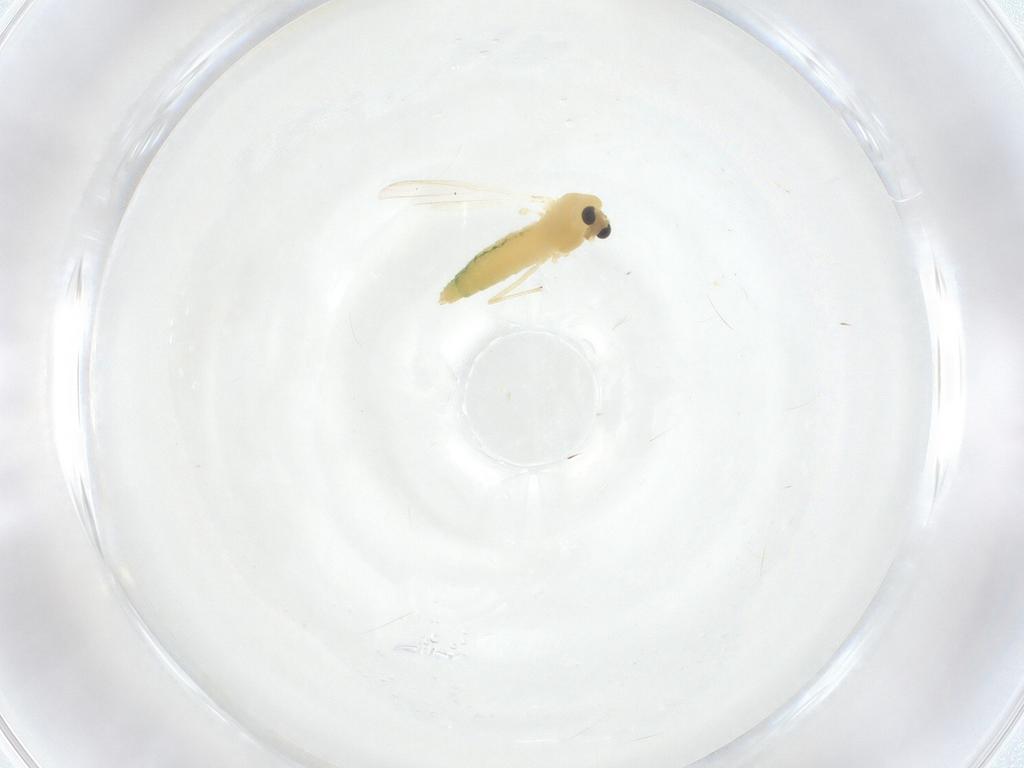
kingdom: Animalia
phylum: Arthropoda
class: Insecta
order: Diptera
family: Chironomidae
